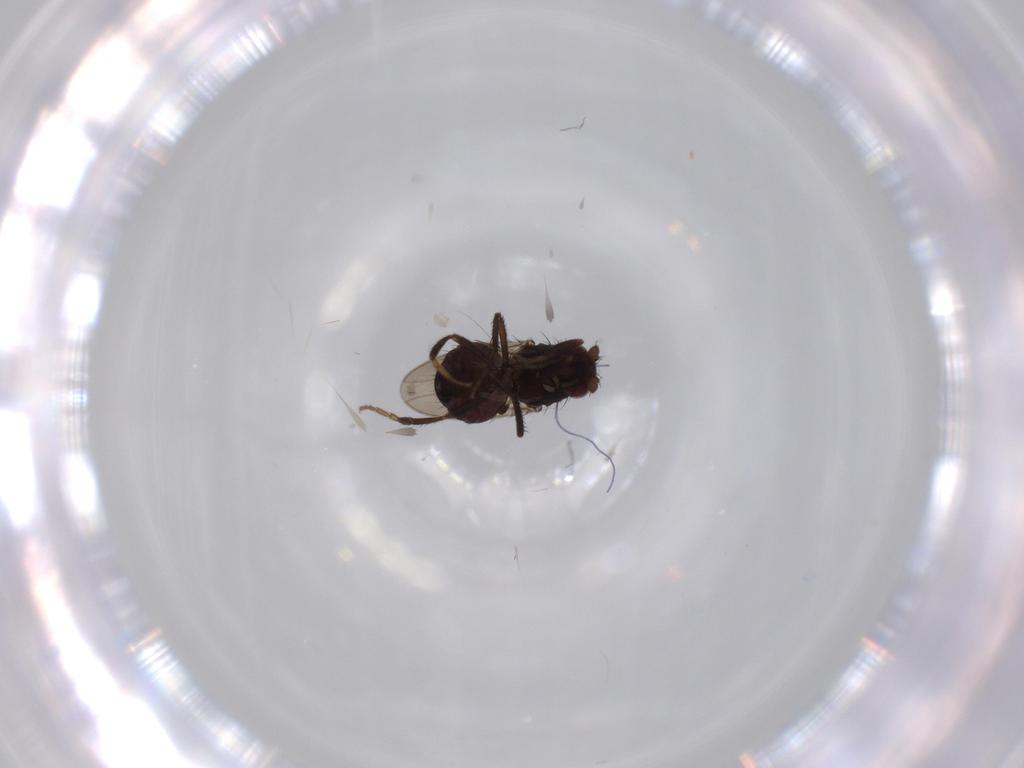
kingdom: Animalia
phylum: Arthropoda
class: Insecta
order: Diptera
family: Sphaeroceridae
